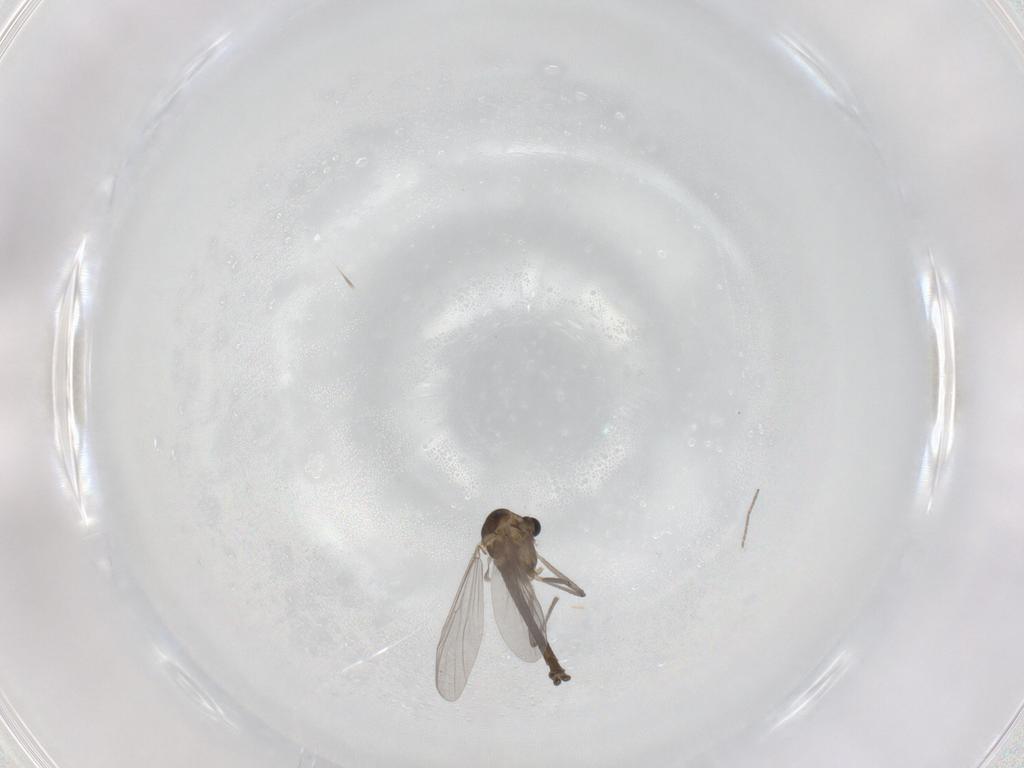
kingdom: Animalia
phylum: Arthropoda
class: Insecta
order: Diptera
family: Chironomidae
